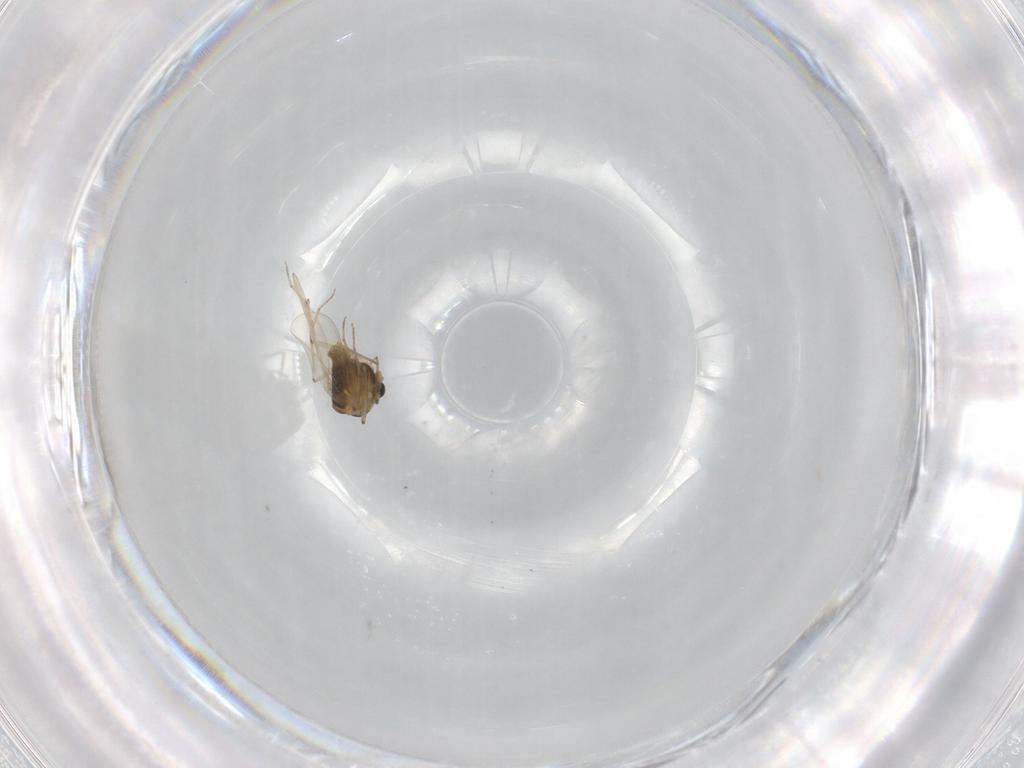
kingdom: Animalia
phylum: Arthropoda
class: Insecta
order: Diptera
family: Chironomidae
